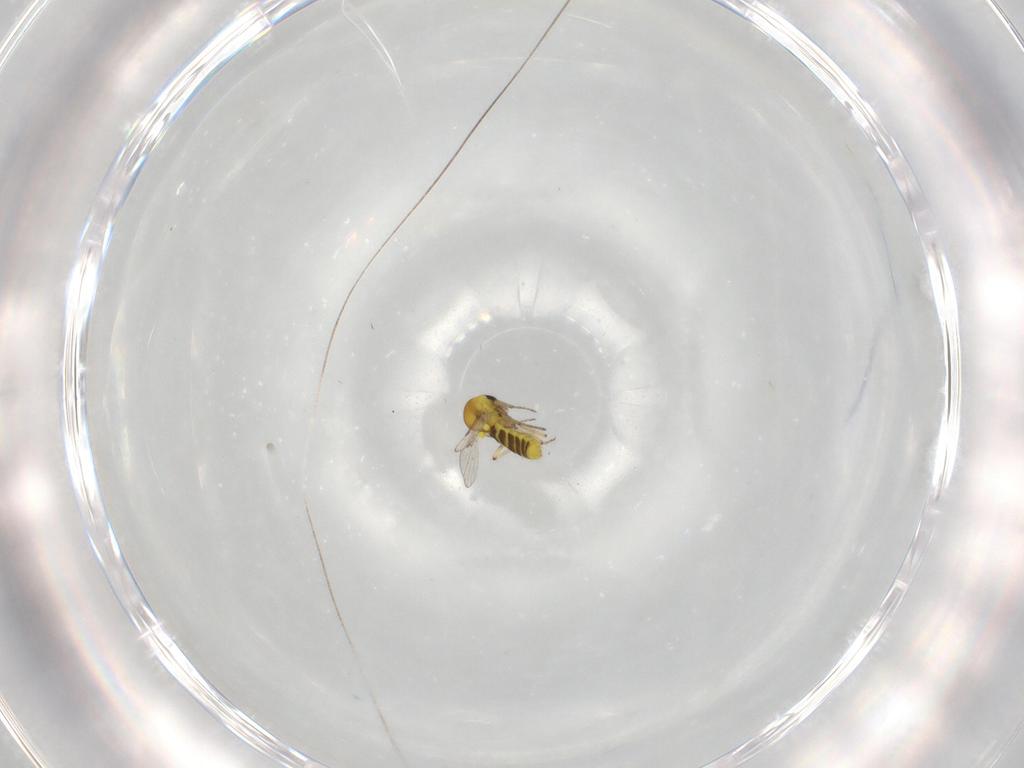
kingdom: Animalia
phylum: Arthropoda
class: Insecta
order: Diptera
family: Ceratopogonidae
